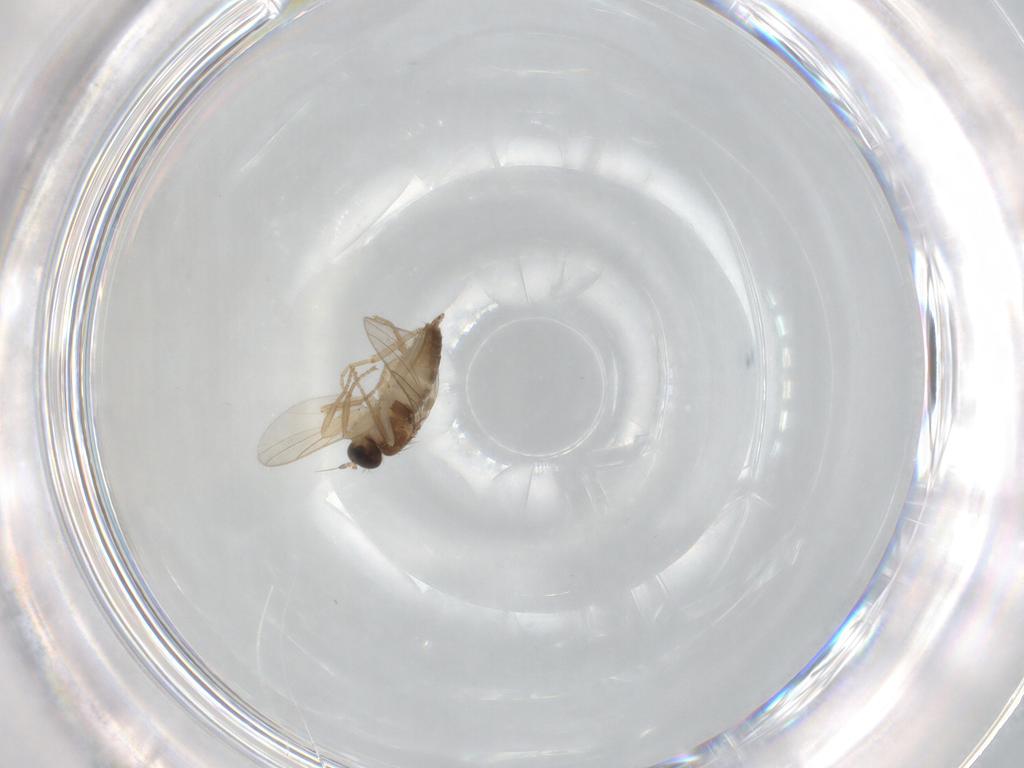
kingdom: Animalia
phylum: Arthropoda
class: Insecta
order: Diptera
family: Hybotidae
